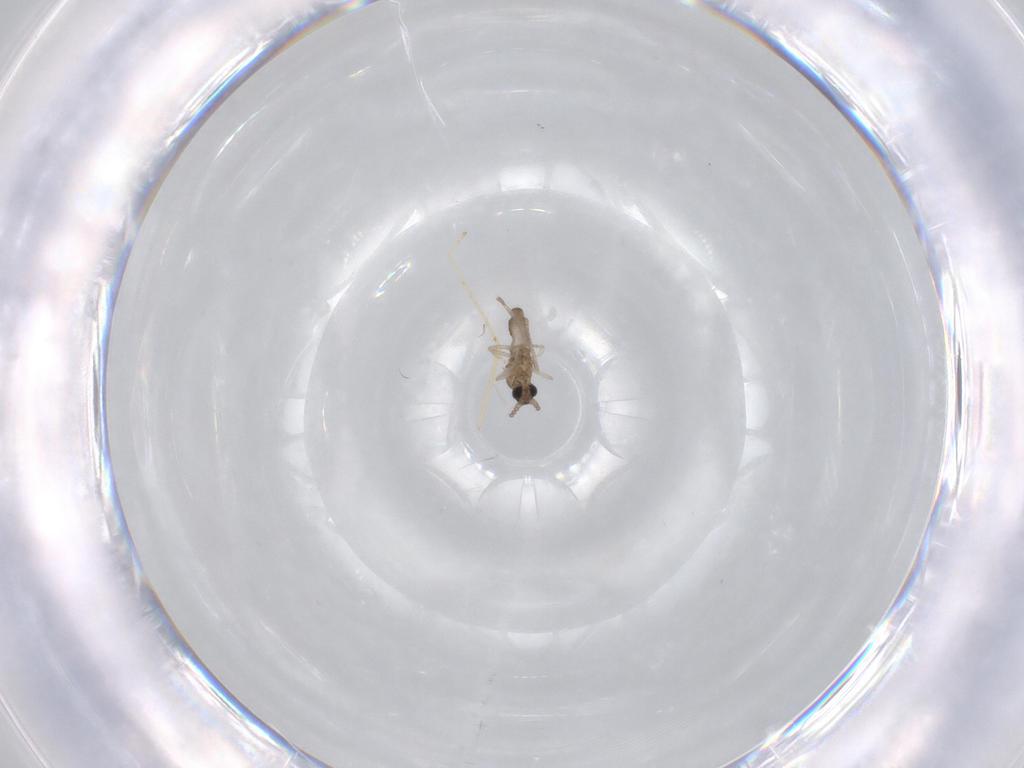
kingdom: Animalia
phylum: Arthropoda
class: Insecta
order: Diptera
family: Cecidomyiidae
